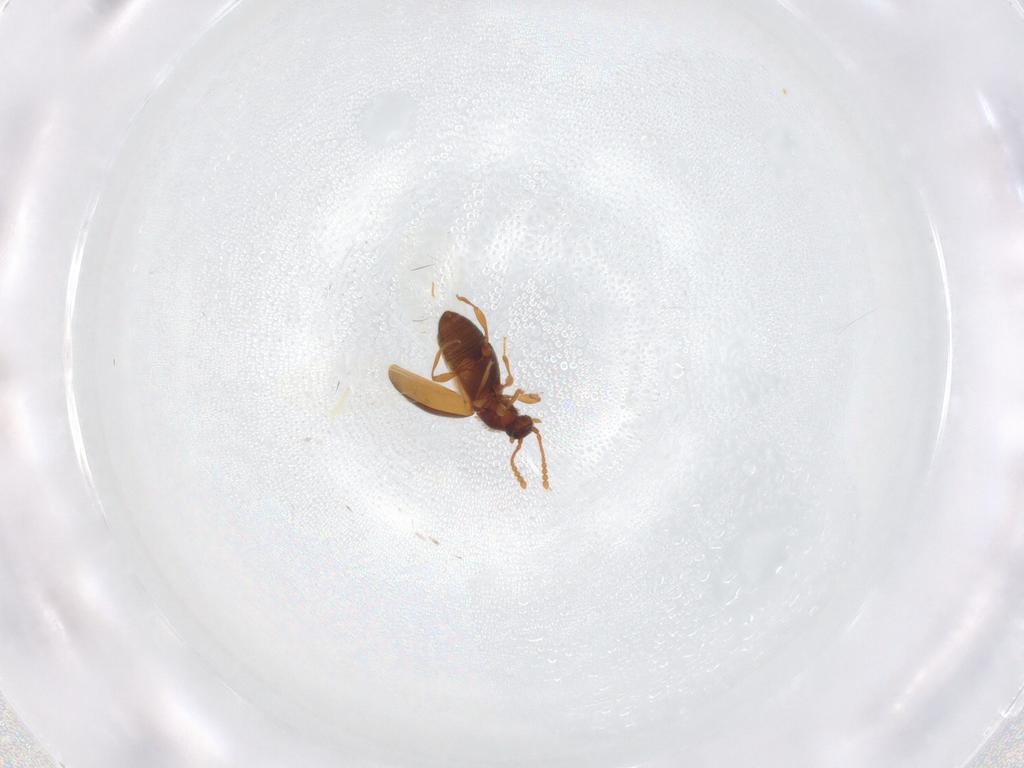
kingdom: Animalia
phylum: Arthropoda
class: Insecta
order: Coleoptera
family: Staphylinidae
